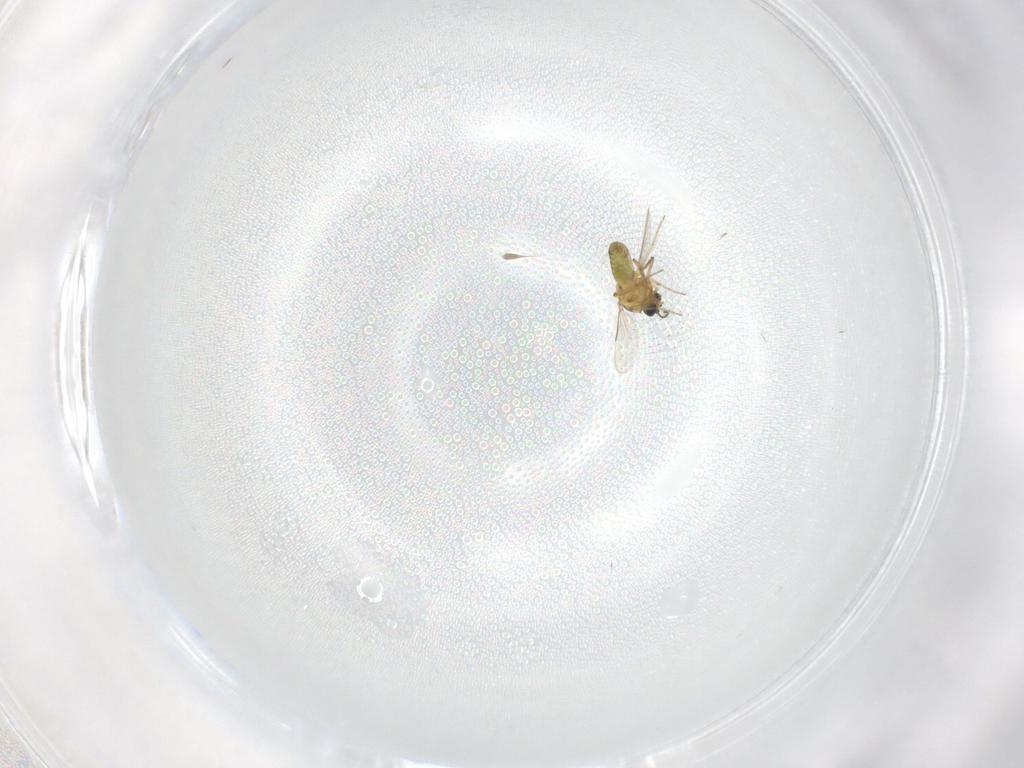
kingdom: Animalia
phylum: Arthropoda
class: Insecta
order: Diptera
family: Ceratopogonidae
